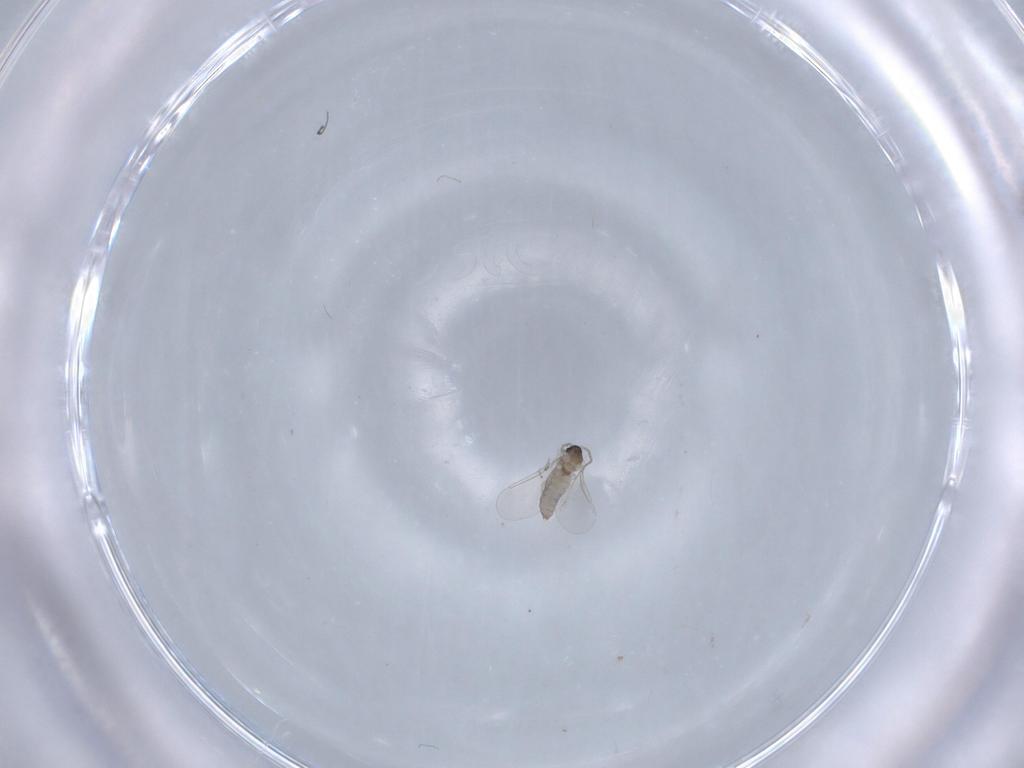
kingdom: Animalia
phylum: Arthropoda
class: Insecta
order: Diptera
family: Cecidomyiidae
